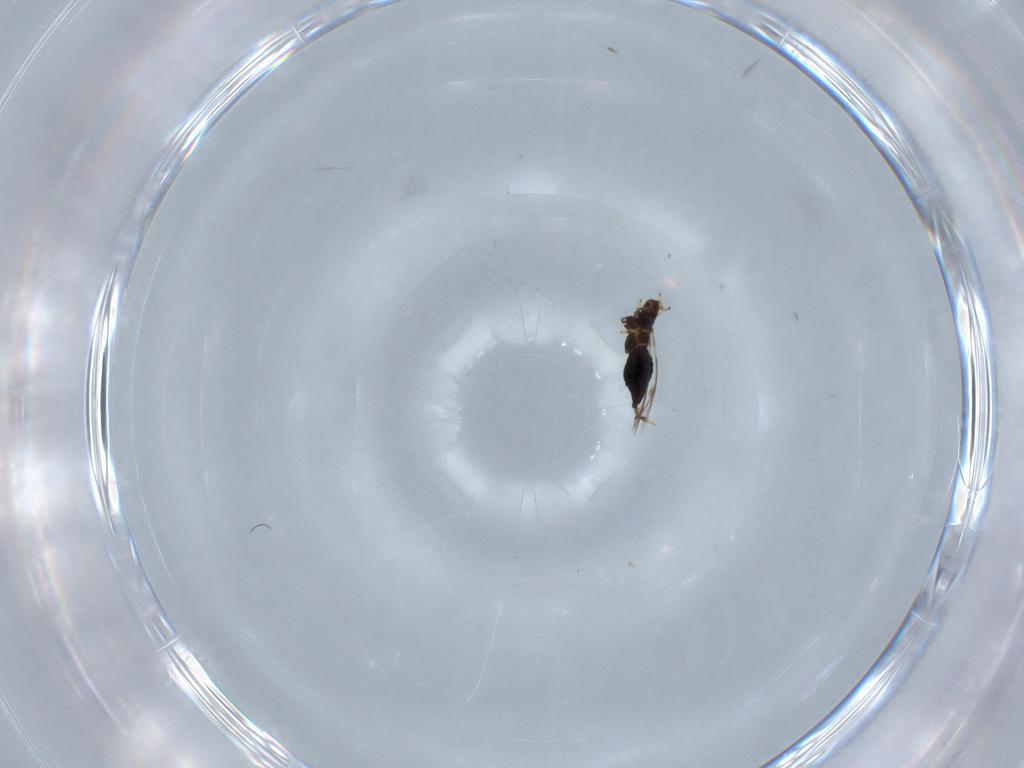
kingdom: Animalia
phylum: Arthropoda
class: Insecta
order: Thysanoptera
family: Thripidae
